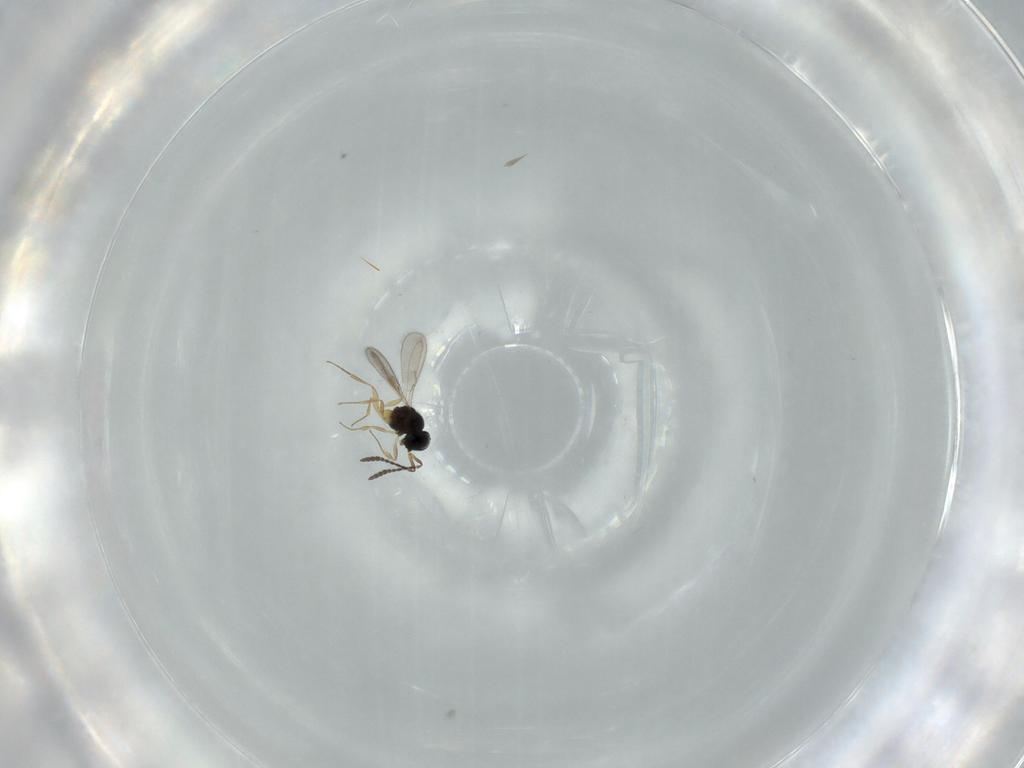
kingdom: Animalia
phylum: Arthropoda
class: Insecta
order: Hymenoptera
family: Scelionidae
